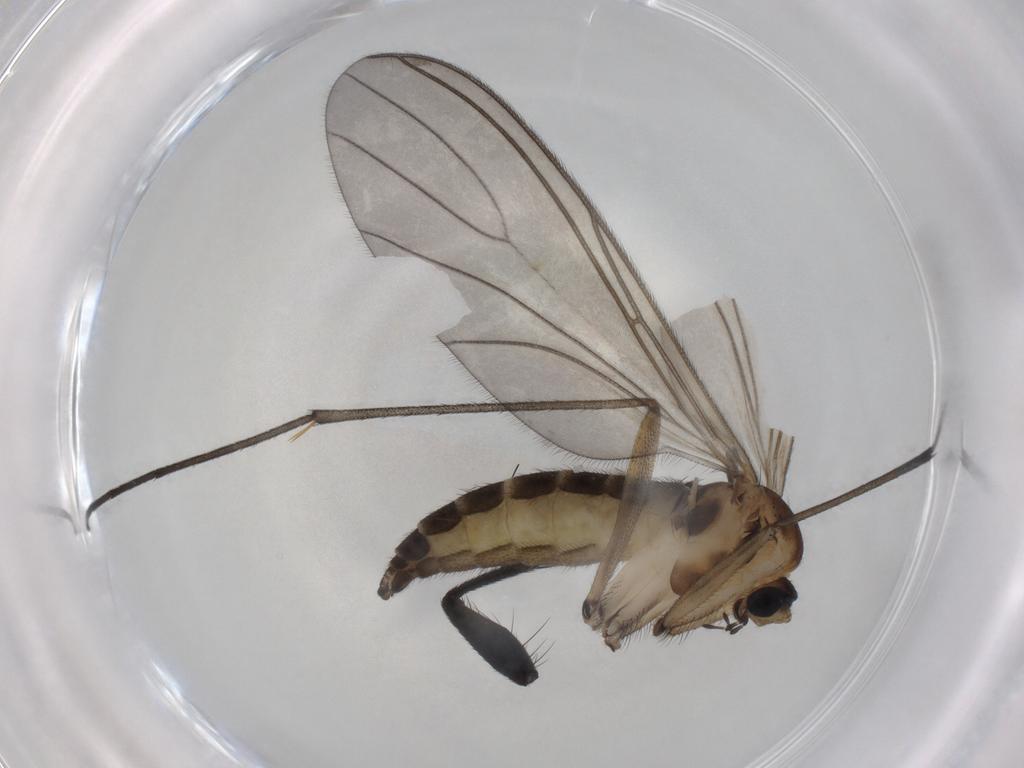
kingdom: Animalia
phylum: Arthropoda
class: Insecta
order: Diptera
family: Sciaridae
